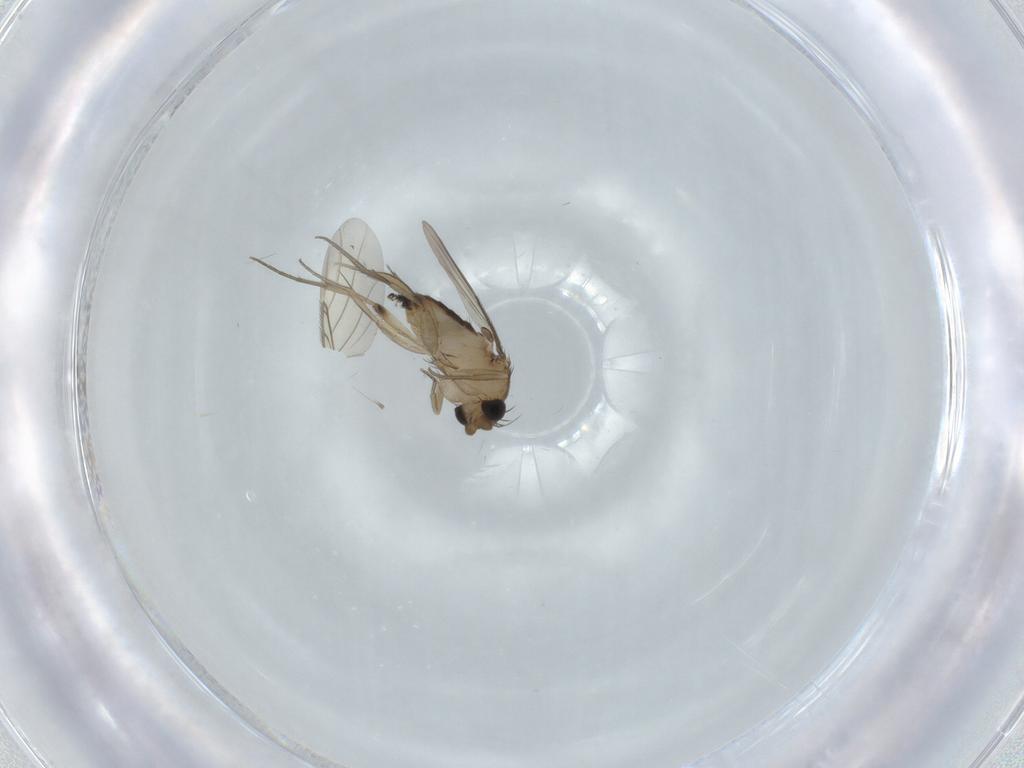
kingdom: Animalia
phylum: Arthropoda
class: Insecta
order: Diptera
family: Phoridae
